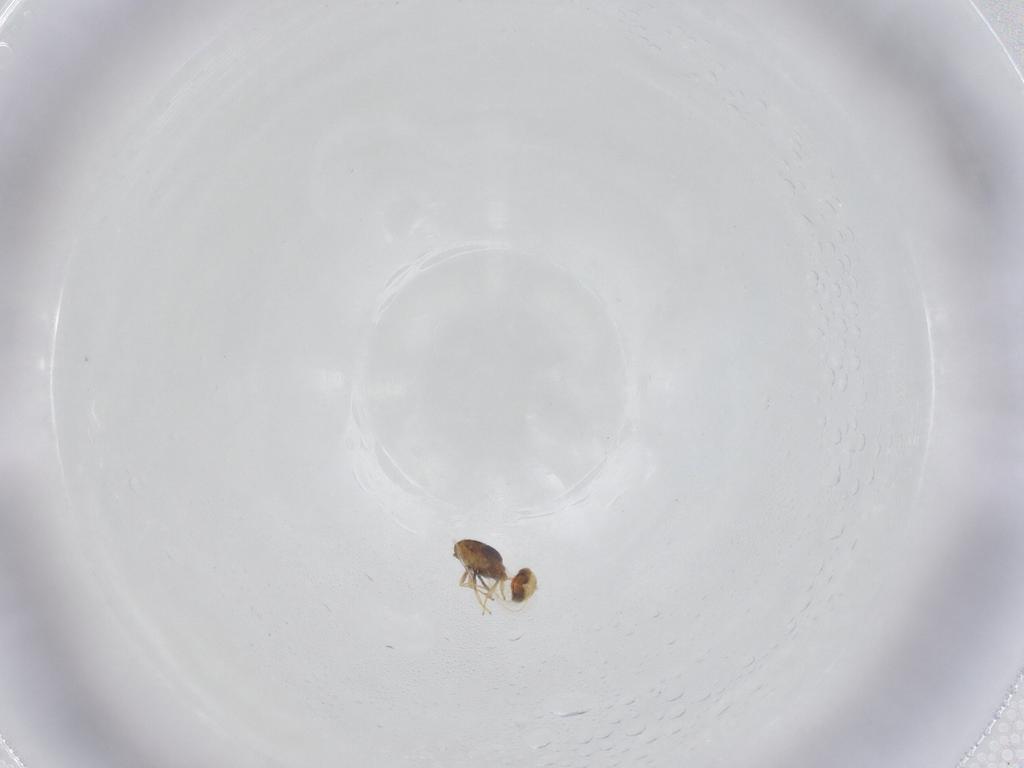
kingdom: Animalia
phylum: Arthropoda
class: Insecta
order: Hymenoptera
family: Aphelinidae
